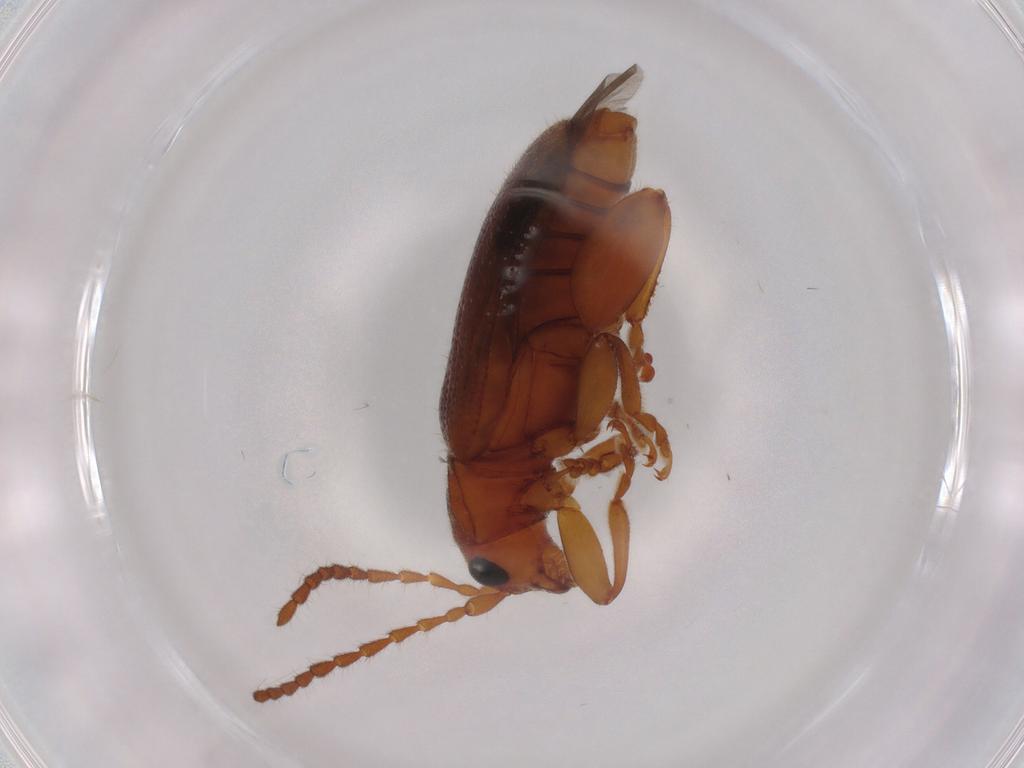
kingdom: Animalia
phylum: Arthropoda
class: Insecta
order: Coleoptera
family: Chrysomelidae
